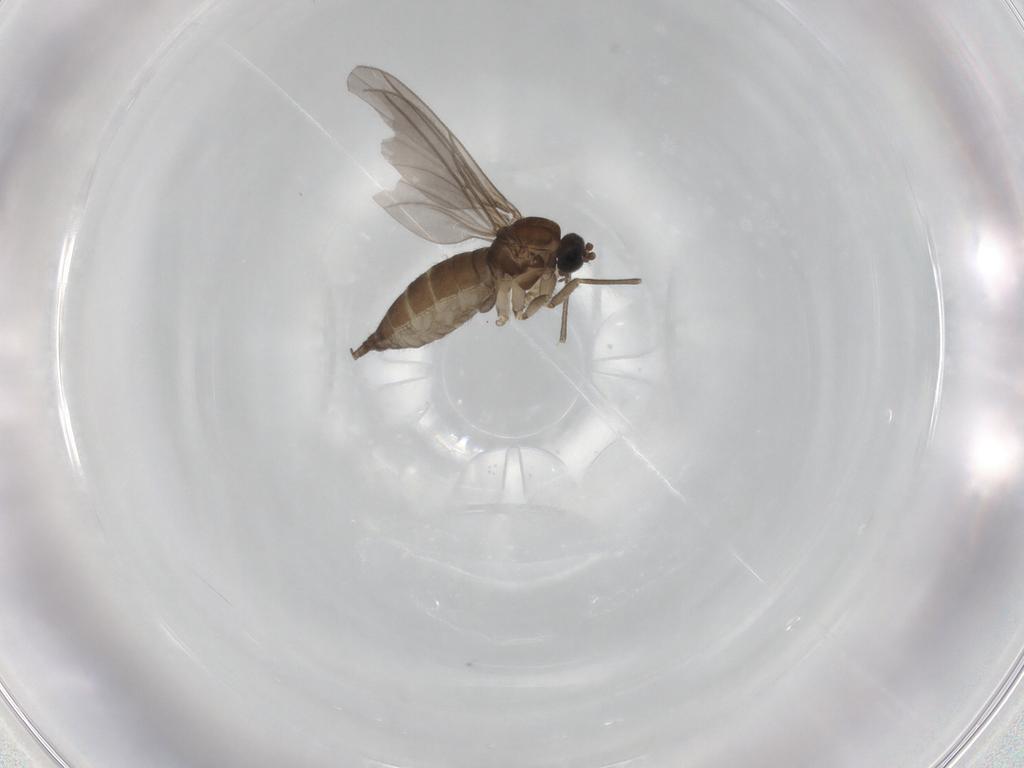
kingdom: Animalia
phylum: Arthropoda
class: Insecta
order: Diptera
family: Sciaridae
